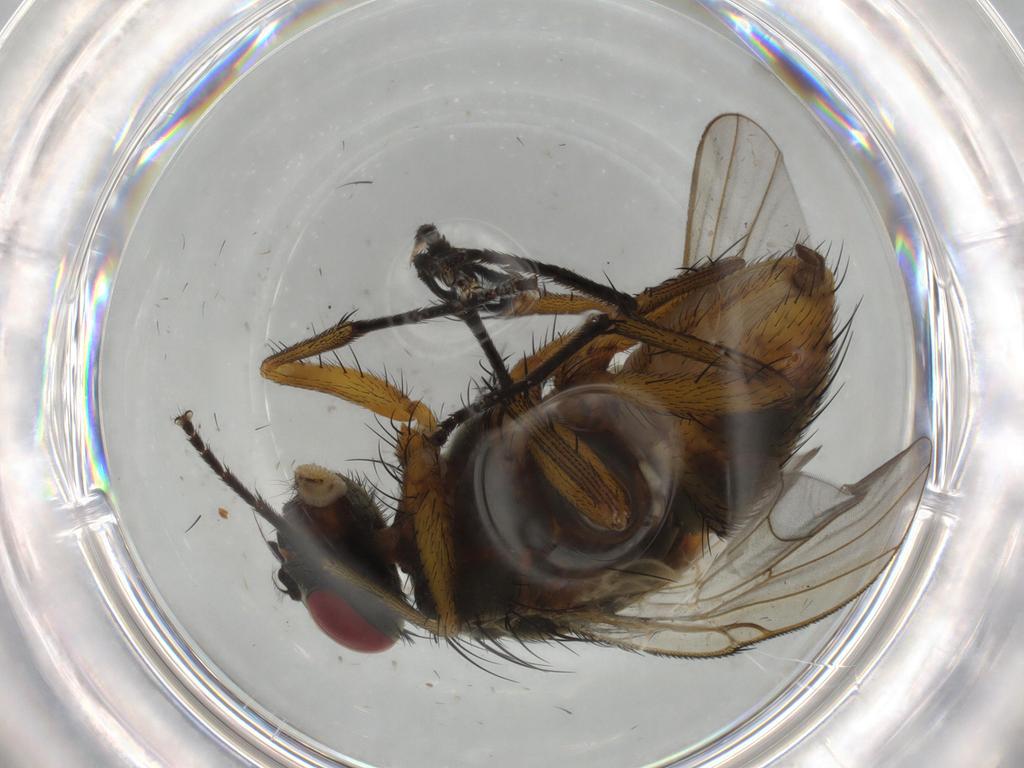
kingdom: Animalia
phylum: Arthropoda
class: Insecta
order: Diptera
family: Muscidae
